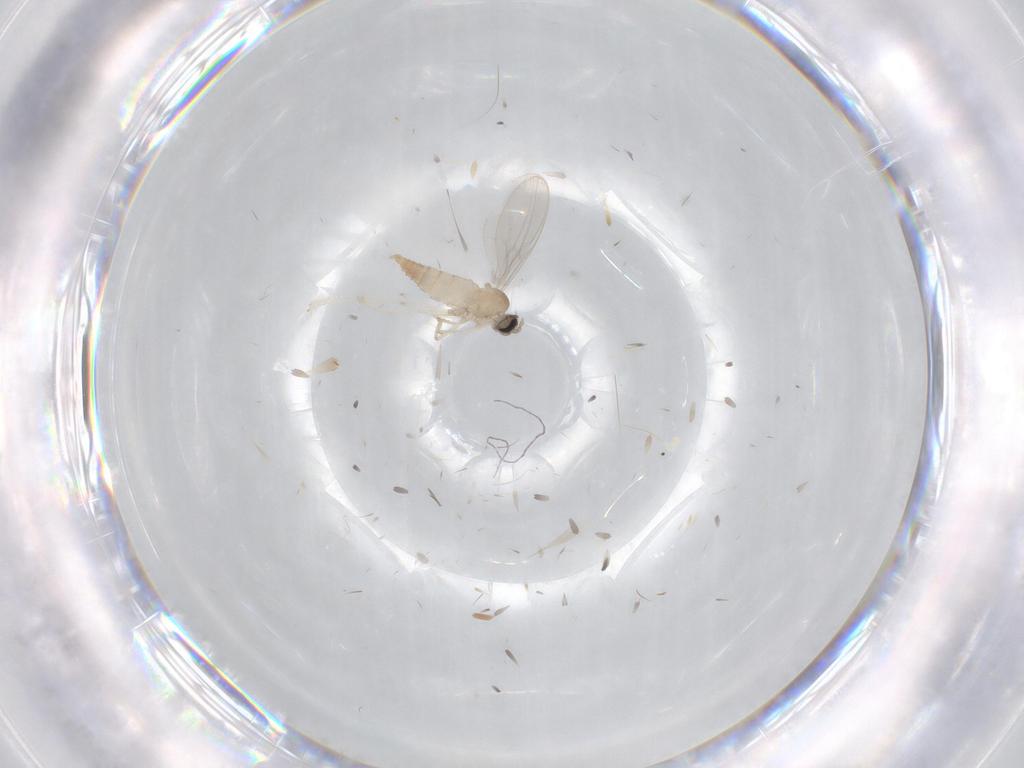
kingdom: Animalia
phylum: Arthropoda
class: Insecta
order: Diptera
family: Cecidomyiidae
